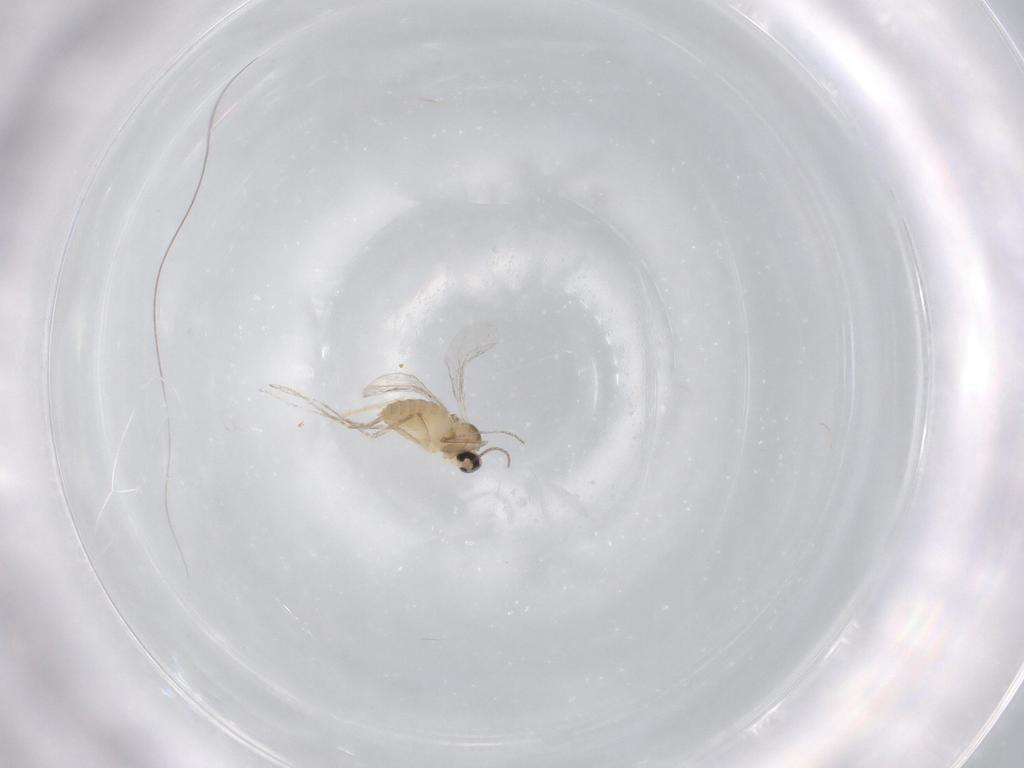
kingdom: Animalia
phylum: Arthropoda
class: Insecta
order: Diptera
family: Cecidomyiidae
